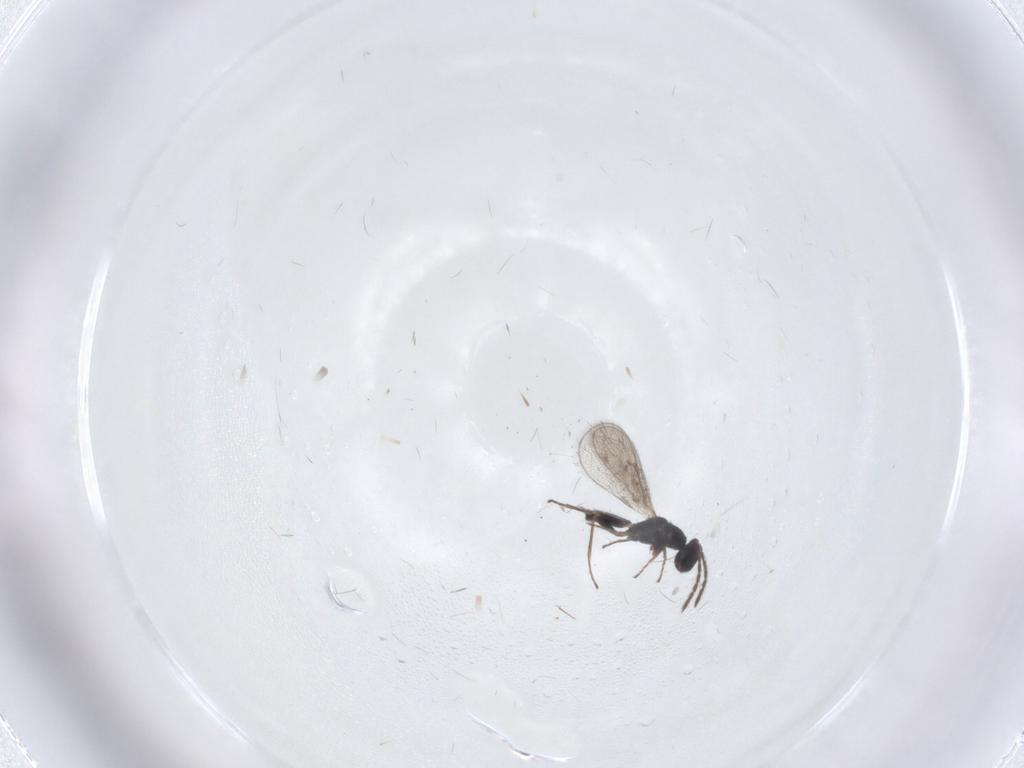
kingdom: Animalia
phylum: Arthropoda
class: Insecta
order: Hymenoptera
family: Eulophidae
